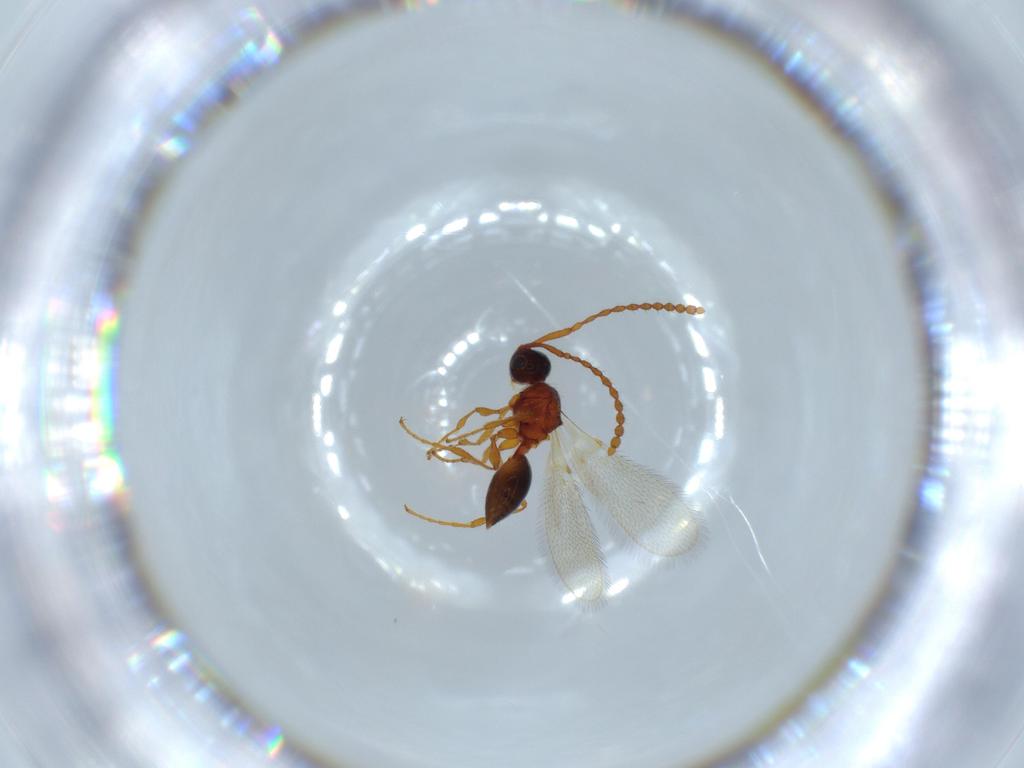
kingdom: Animalia
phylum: Arthropoda
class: Insecta
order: Hymenoptera
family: Diapriidae
